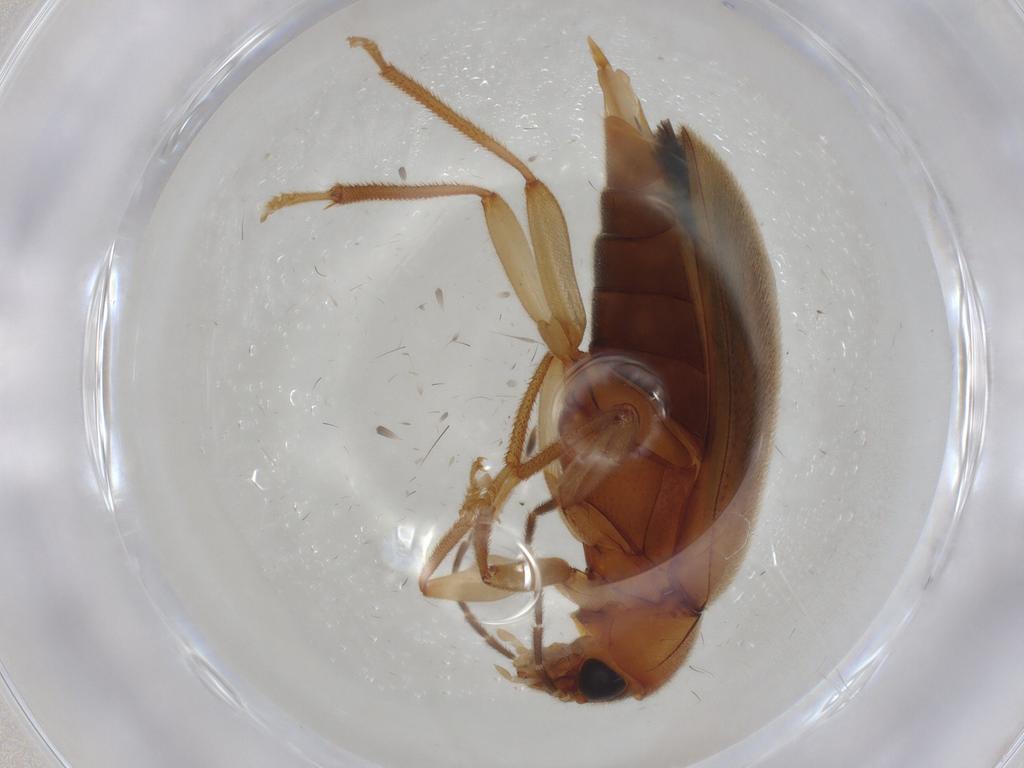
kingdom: Animalia
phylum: Arthropoda
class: Insecta
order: Coleoptera
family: Ptilodactylidae
